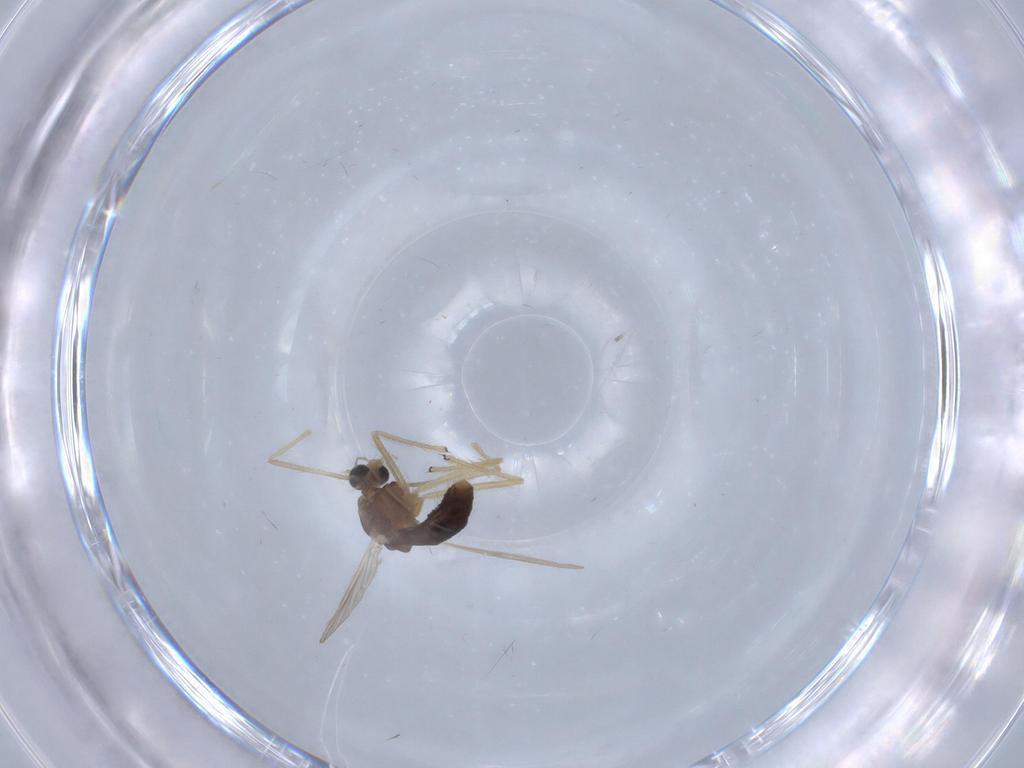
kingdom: Animalia
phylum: Arthropoda
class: Insecta
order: Diptera
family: Chironomidae
